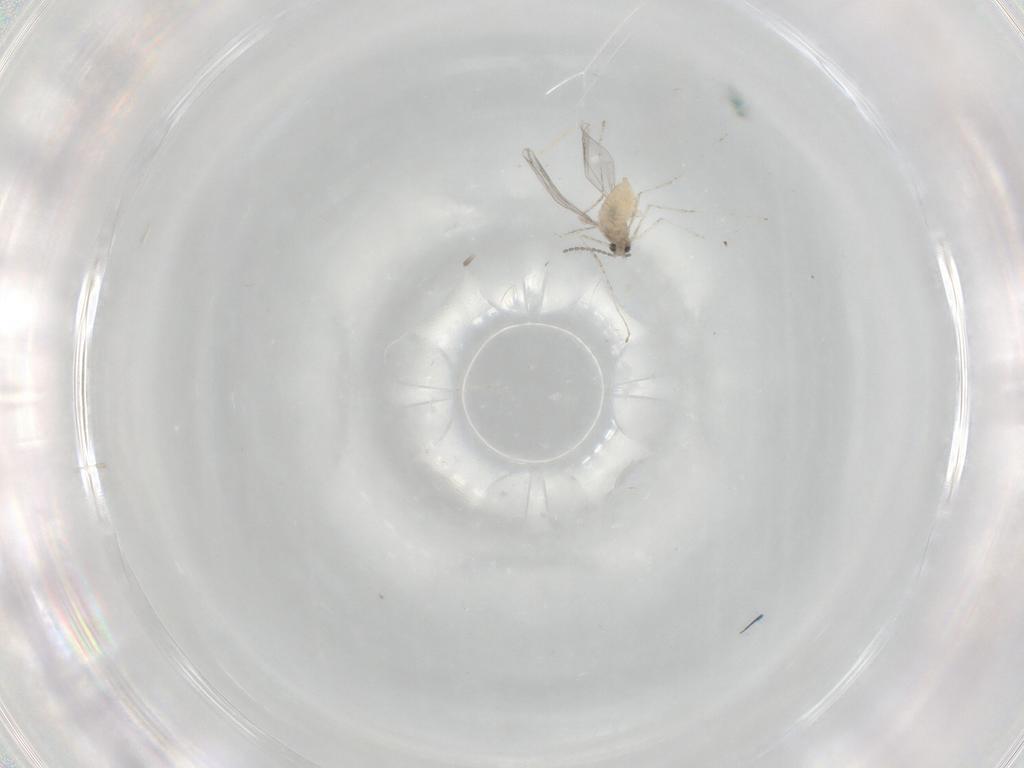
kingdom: Animalia
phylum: Arthropoda
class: Insecta
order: Diptera
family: Cecidomyiidae
